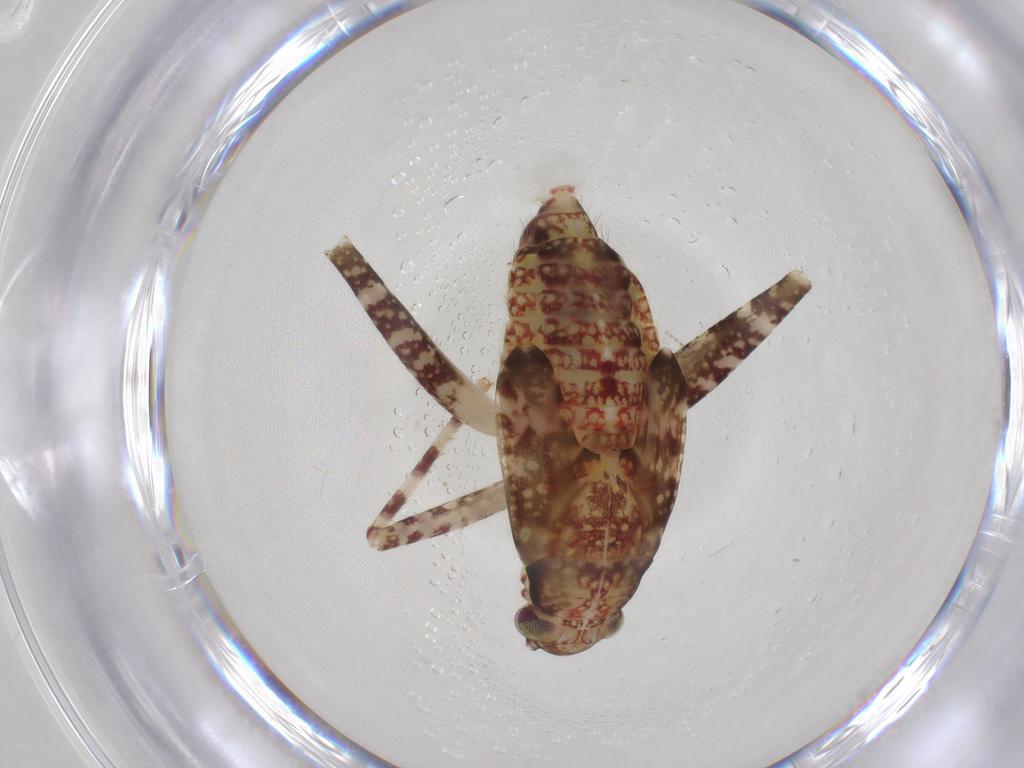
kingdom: Animalia
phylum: Arthropoda
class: Insecta
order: Hemiptera
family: Miridae
